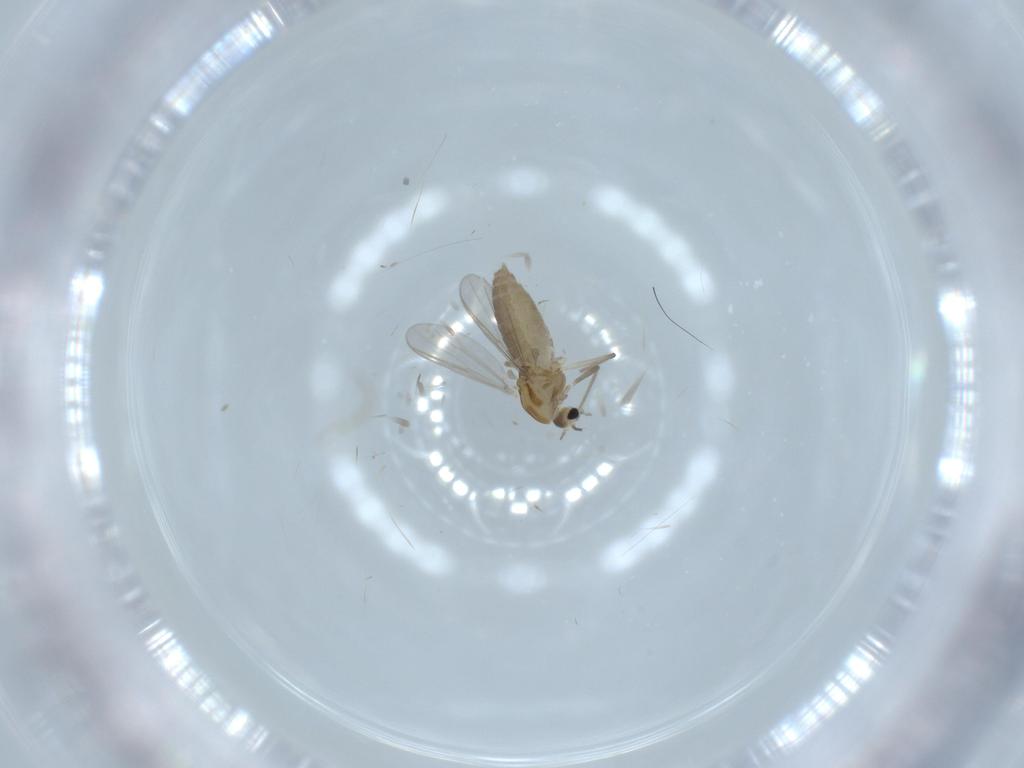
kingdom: Animalia
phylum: Arthropoda
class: Insecta
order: Diptera
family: Chironomidae
